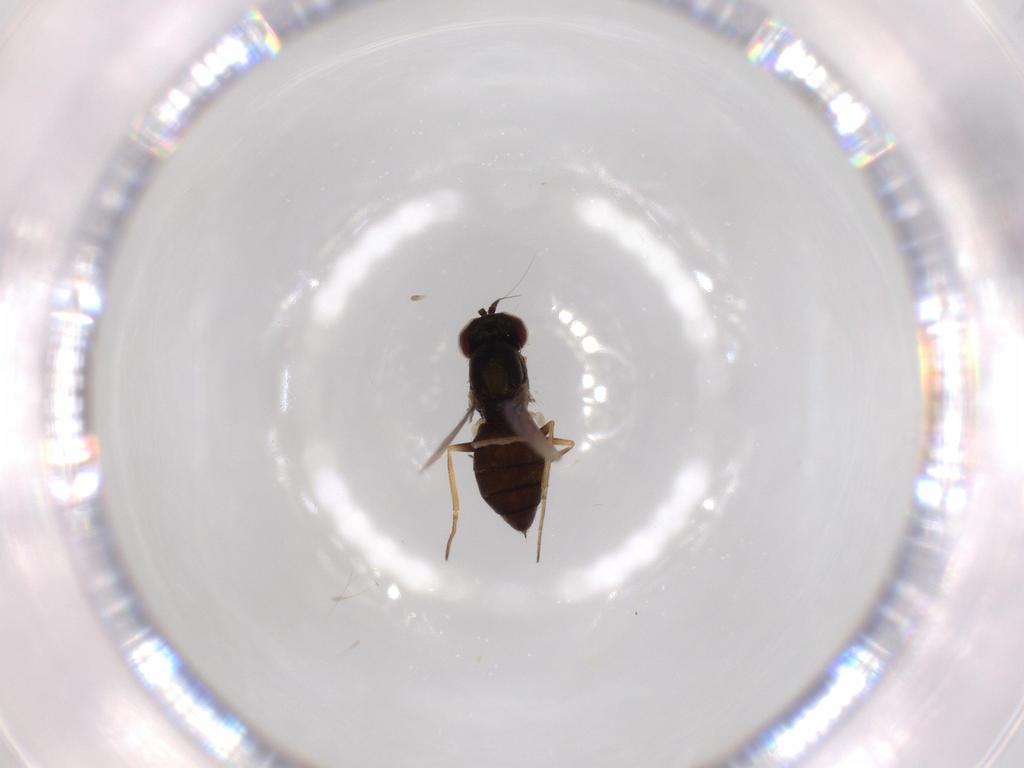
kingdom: Animalia
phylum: Arthropoda
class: Insecta
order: Diptera
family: Dolichopodidae
